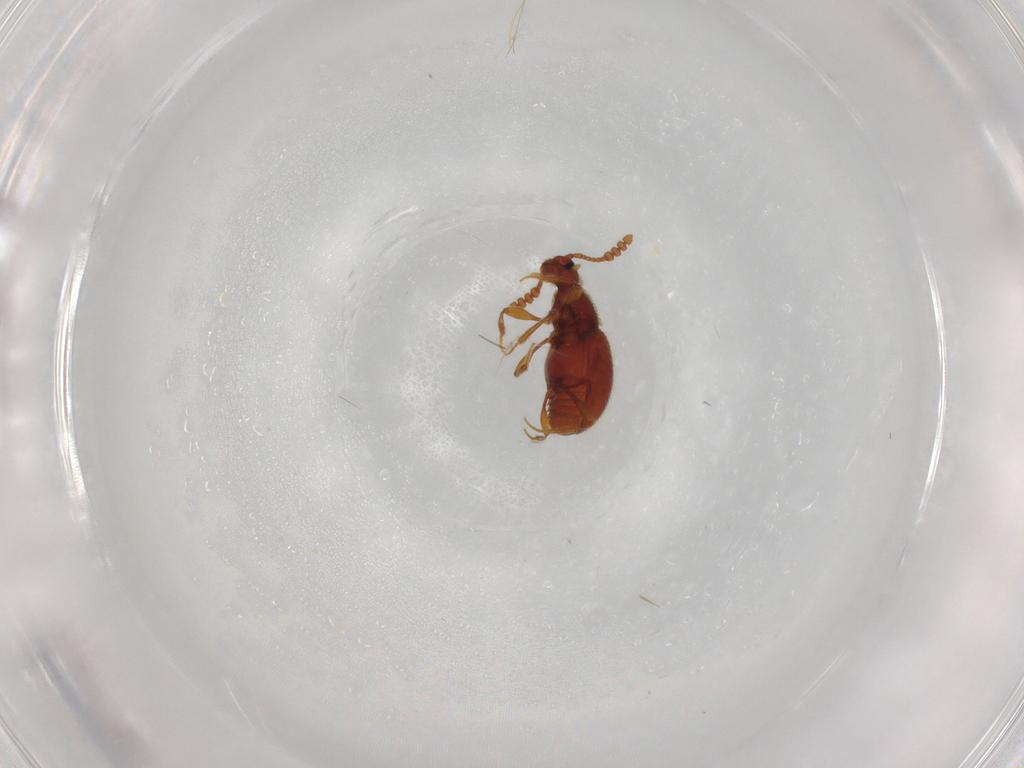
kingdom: Animalia
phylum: Arthropoda
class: Insecta
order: Coleoptera
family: Staphylinidae
